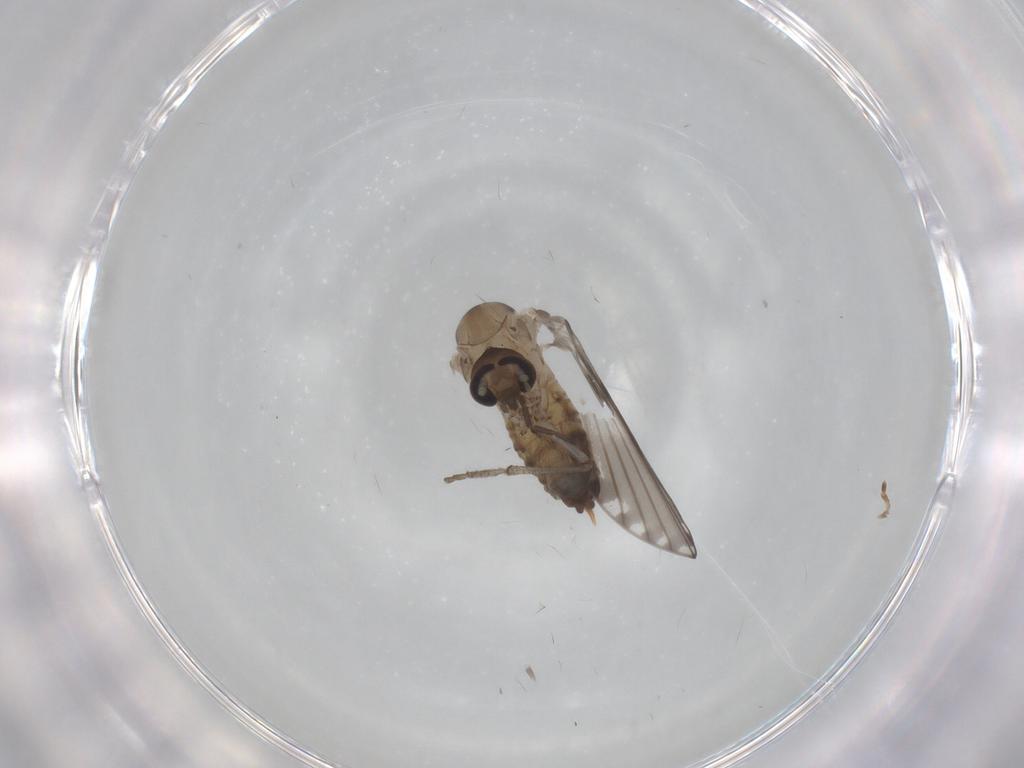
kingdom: Animalia
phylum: Arthropoda
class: Insecta
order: Diptera
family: Psychodidae
